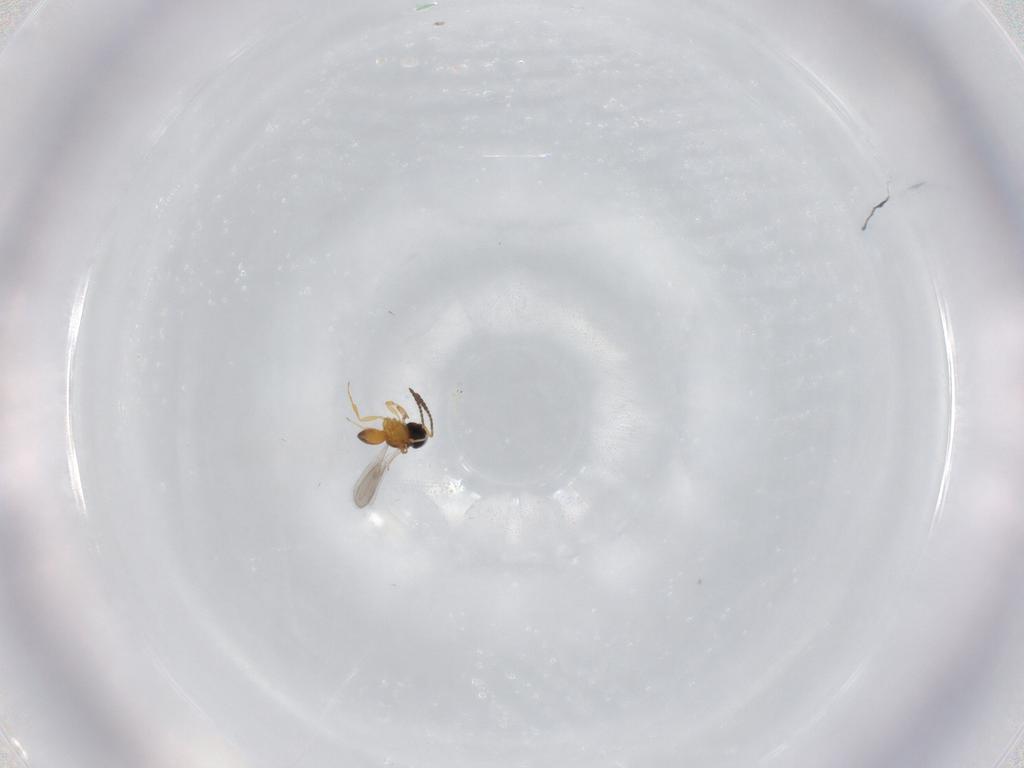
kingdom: Animalia
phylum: Arthropoda
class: Insecta
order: Hymenoptera
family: Scelionidae
